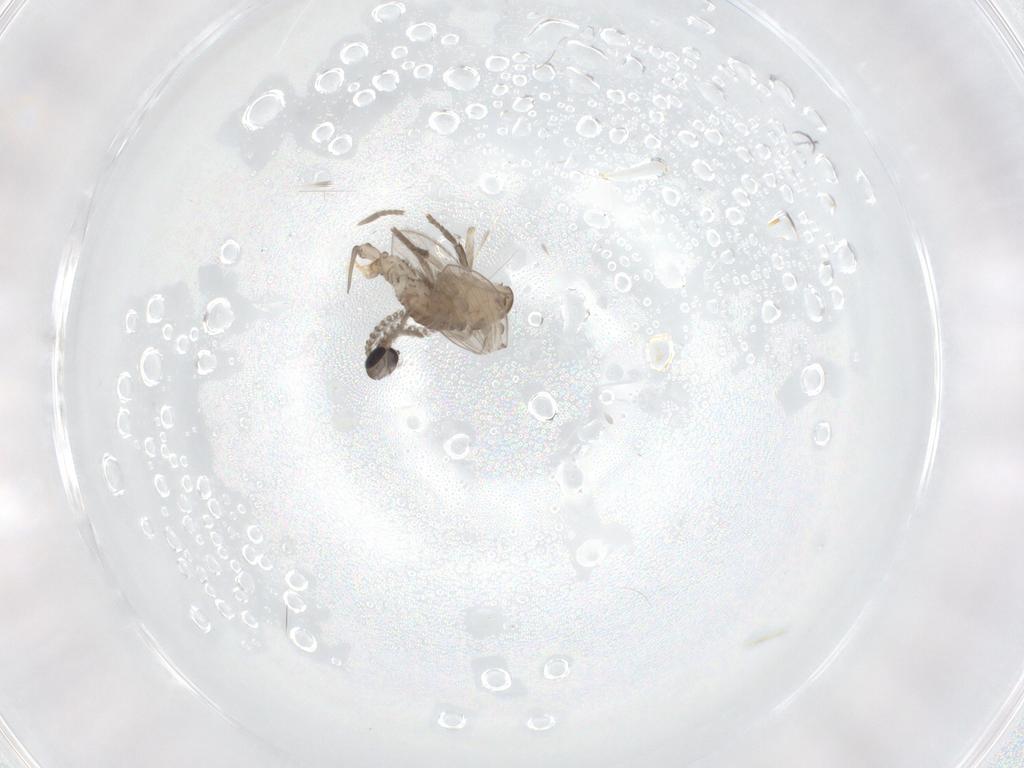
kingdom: Animalia
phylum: Arthropoda
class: Insecta
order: Diptera
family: Psychodidae
